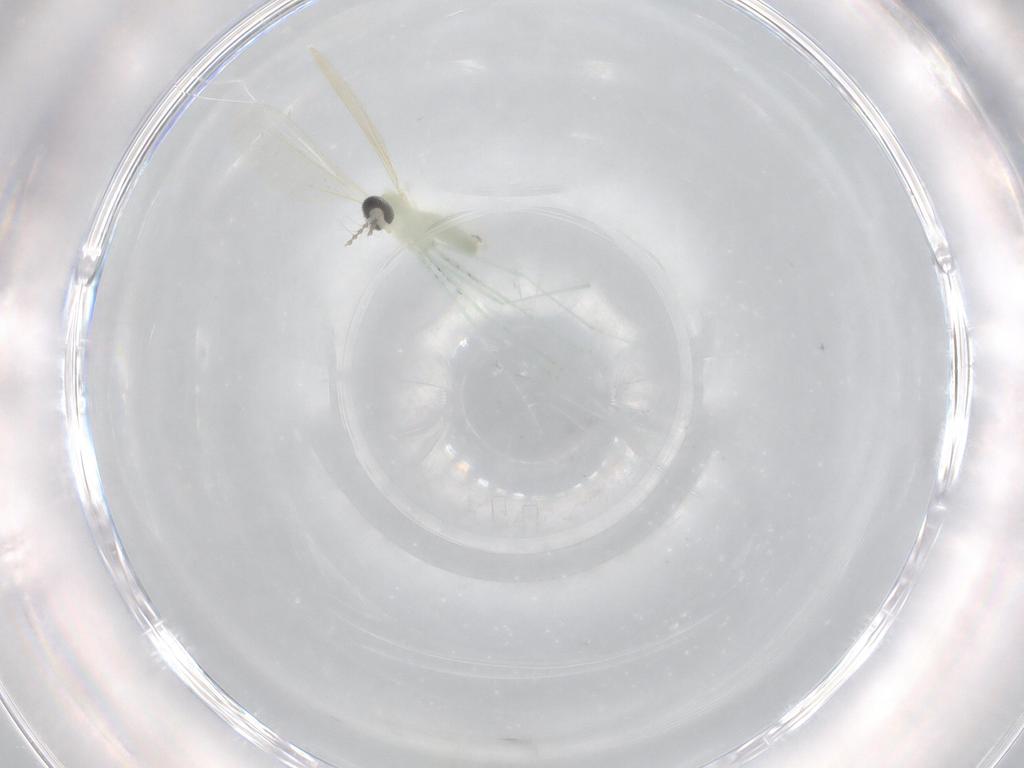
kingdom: Animalia
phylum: Arthropoda
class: Insecta
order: Diptera
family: Cecidomyiidae
